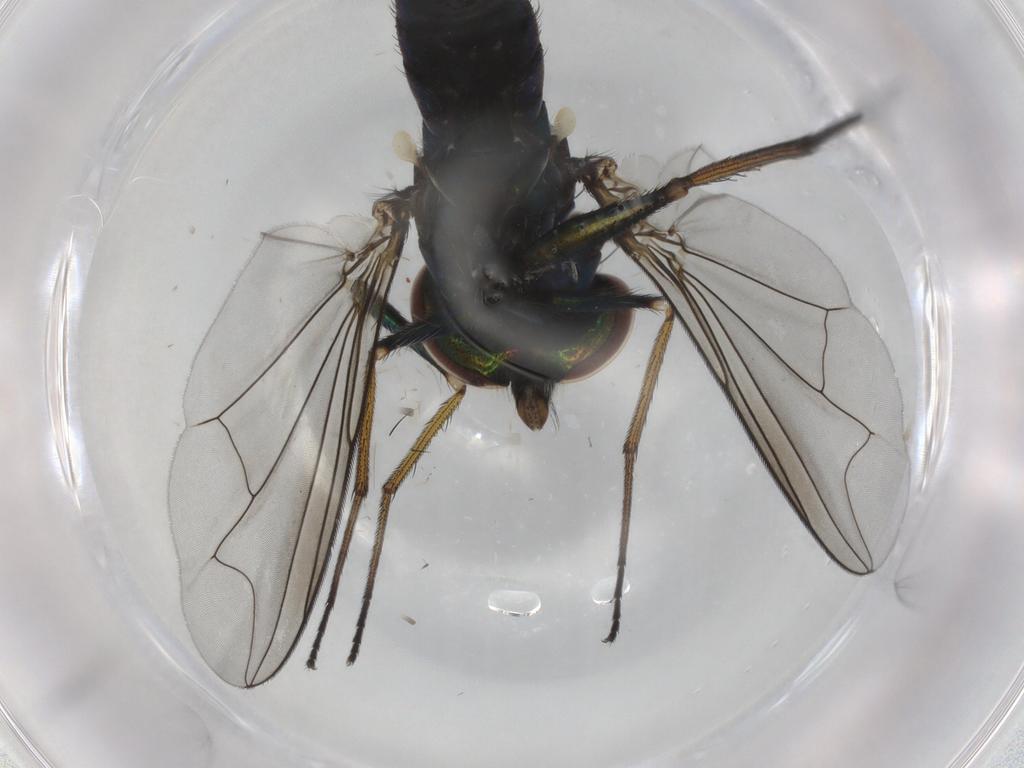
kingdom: Animalia
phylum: Arthropoda
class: Insecta
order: Diptera
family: Dolichopodidae
